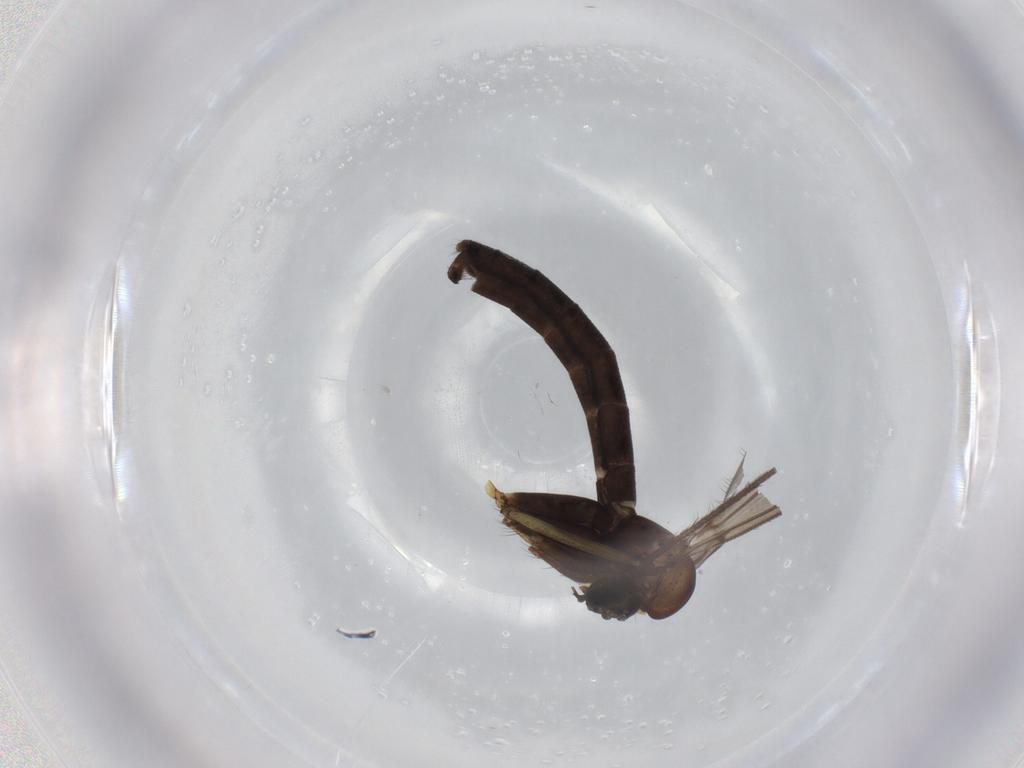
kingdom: Animalia
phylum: Arthropoda
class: Insecta
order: Diptera
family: Cecidomyiidae
